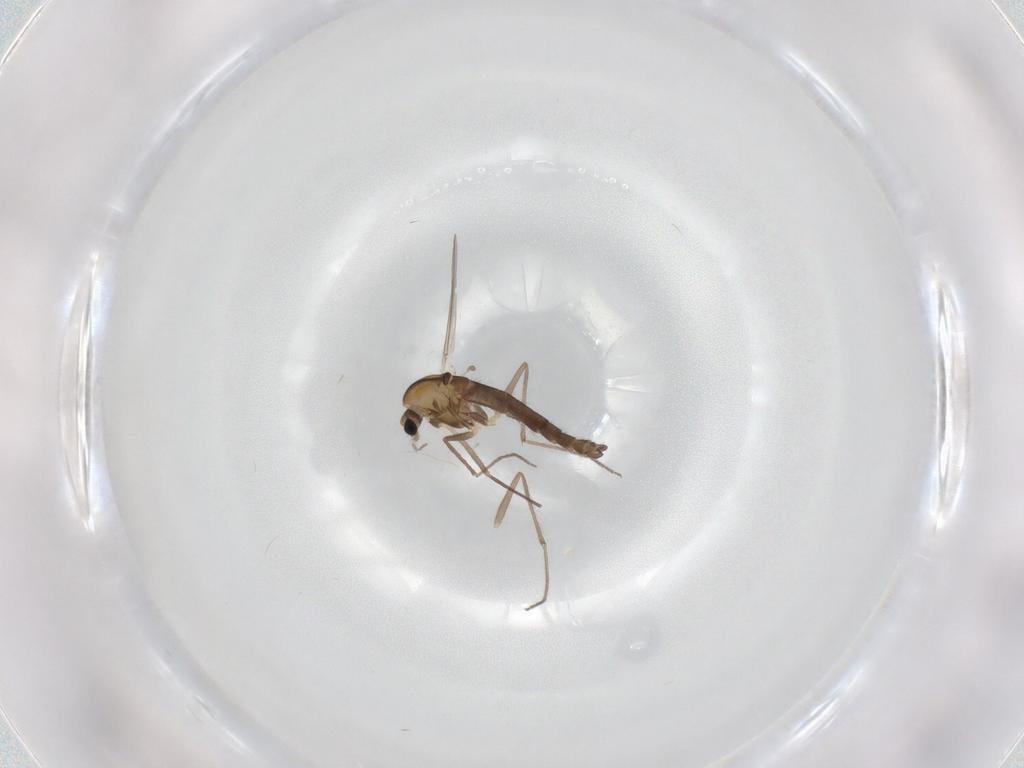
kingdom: Animalia
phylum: Arthropoda
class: Insecta
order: Diptera
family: Chironomidae
